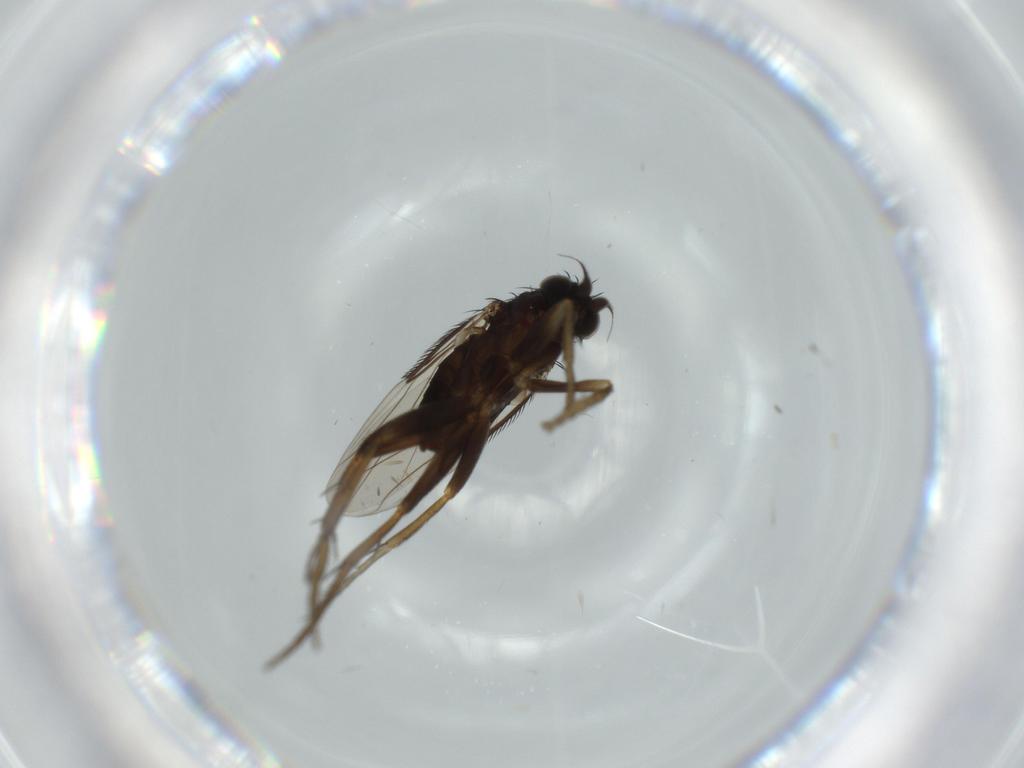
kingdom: Animalia
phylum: Arthropoda
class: Insecta
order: Diptera
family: Phoridae
